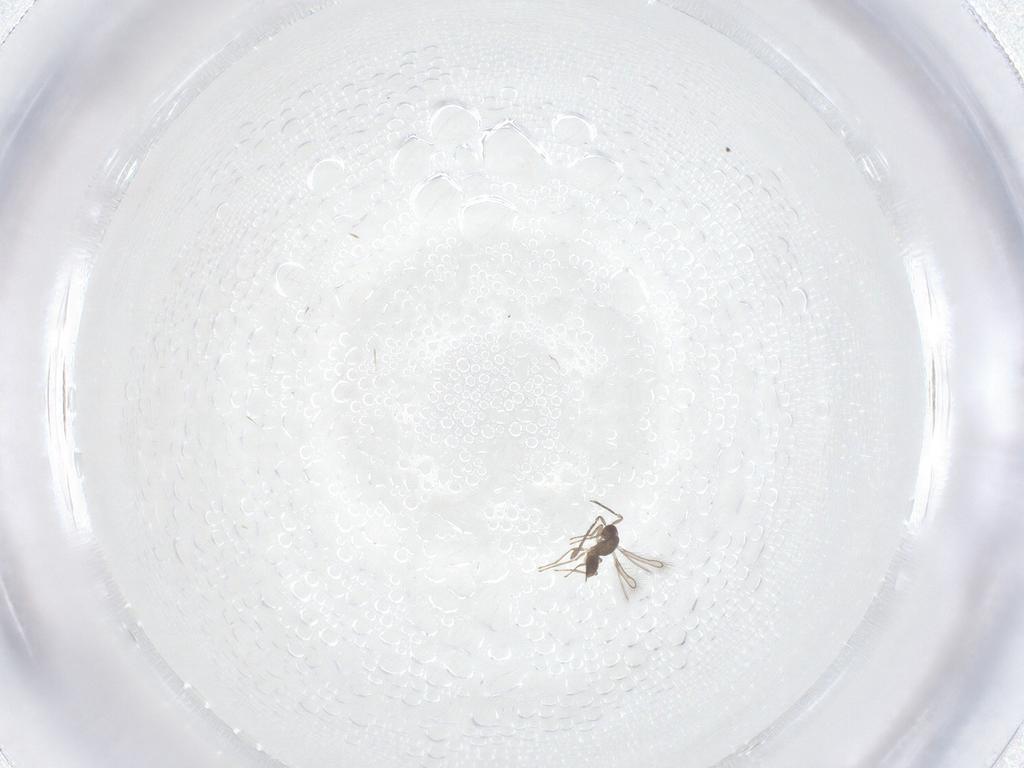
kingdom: Animalia
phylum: Arthropoda
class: Insecta
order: Hymenoptera
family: Mymaridae
